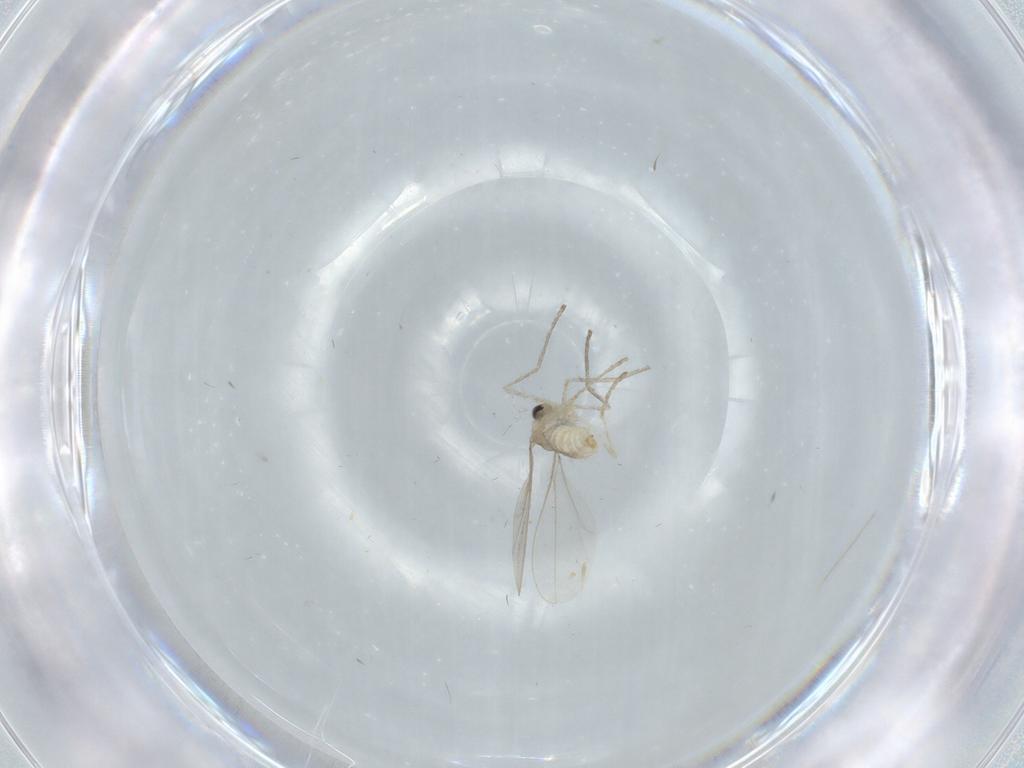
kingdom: Animalia
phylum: Arthropoda
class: Insecta
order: Diptera
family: Cecidomyiidae
